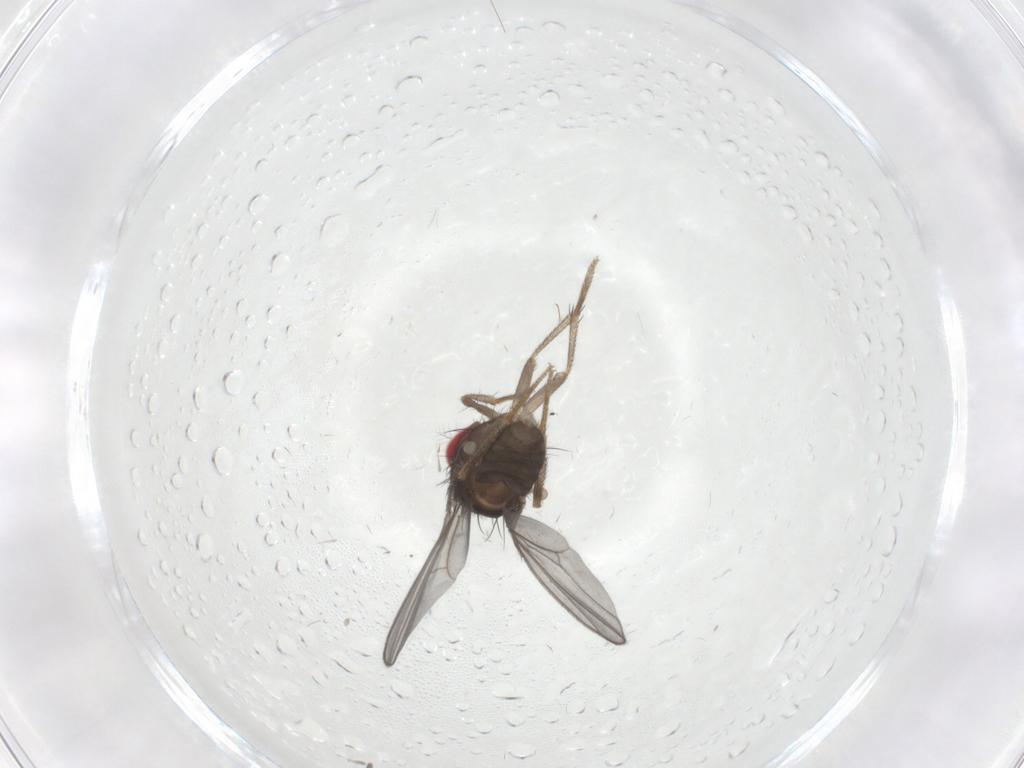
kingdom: Animalia
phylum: Arthropoda
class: Insecta
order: Diptera
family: Drosophilidae
